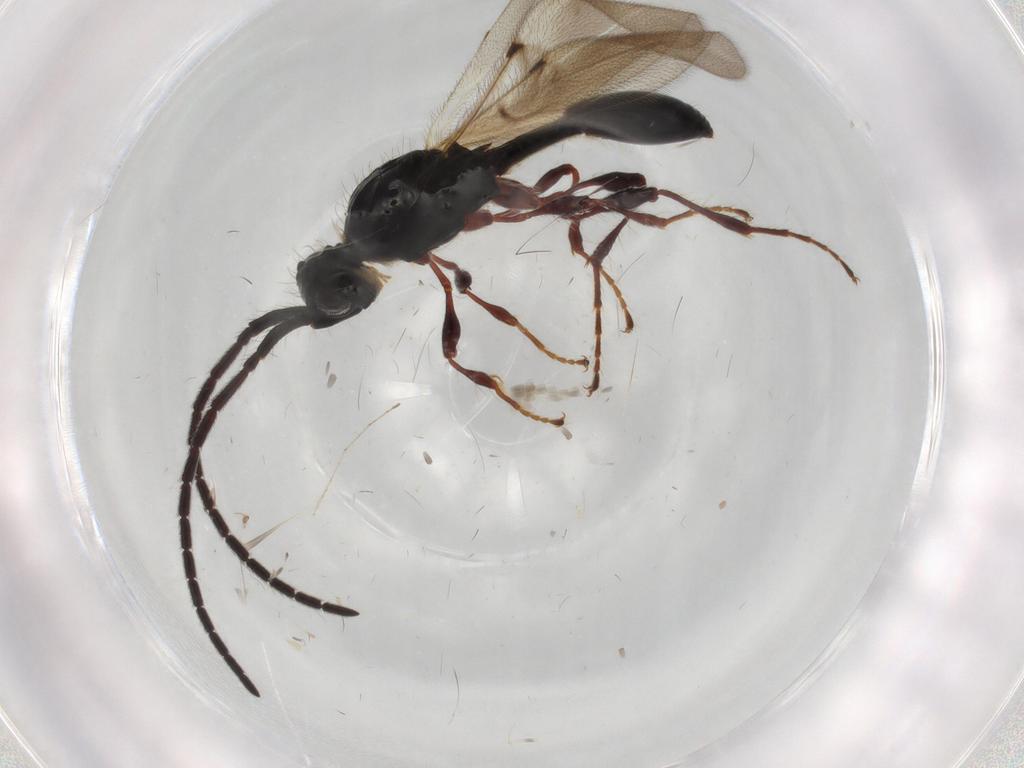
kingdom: Animalia
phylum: Arthropoda
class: Insecta
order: Hymenoptera
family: Diapriidae
